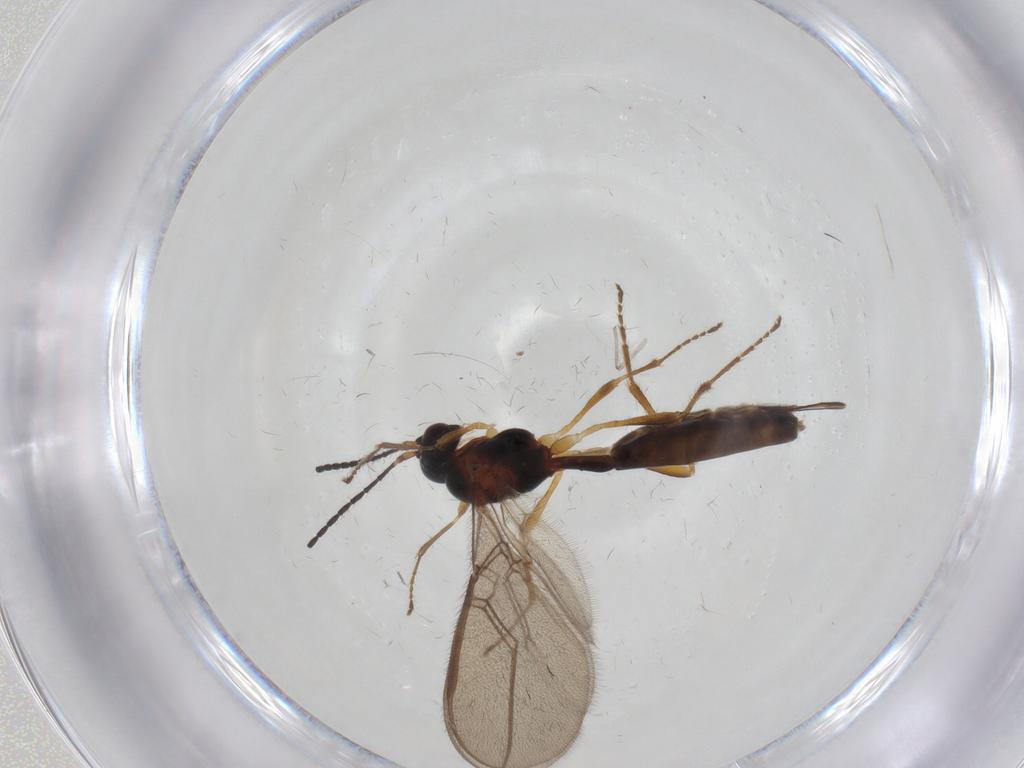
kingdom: Animalia
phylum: Arthropoda
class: Insecta
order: Hymenoptera
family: Braconidae
